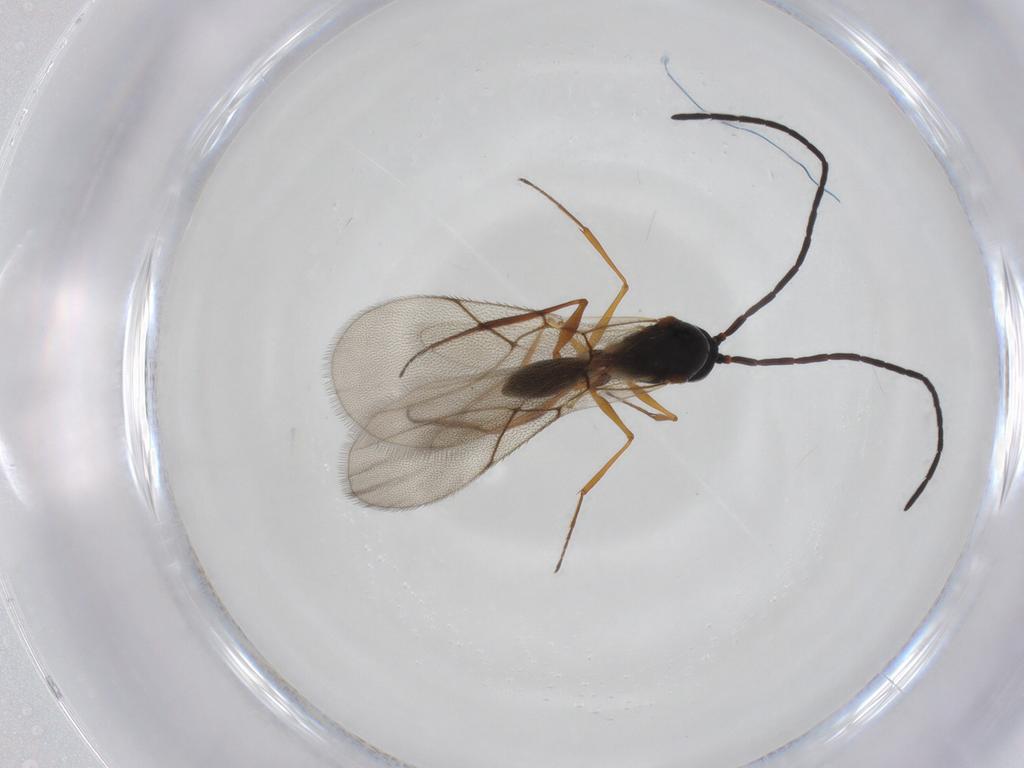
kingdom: Animalia
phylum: Arthropoda
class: Insecta
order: Hymenoptera
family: Figitidae
